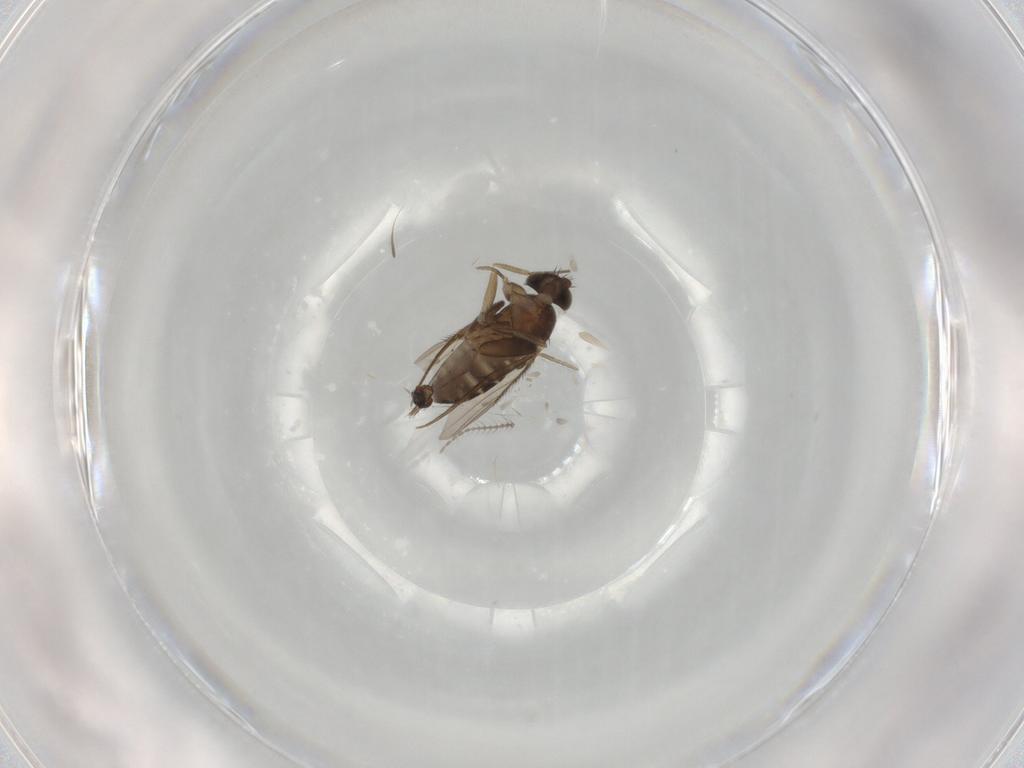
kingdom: Animalia
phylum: Arthropoda
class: Insecta
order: Diptera
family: Phoridae
